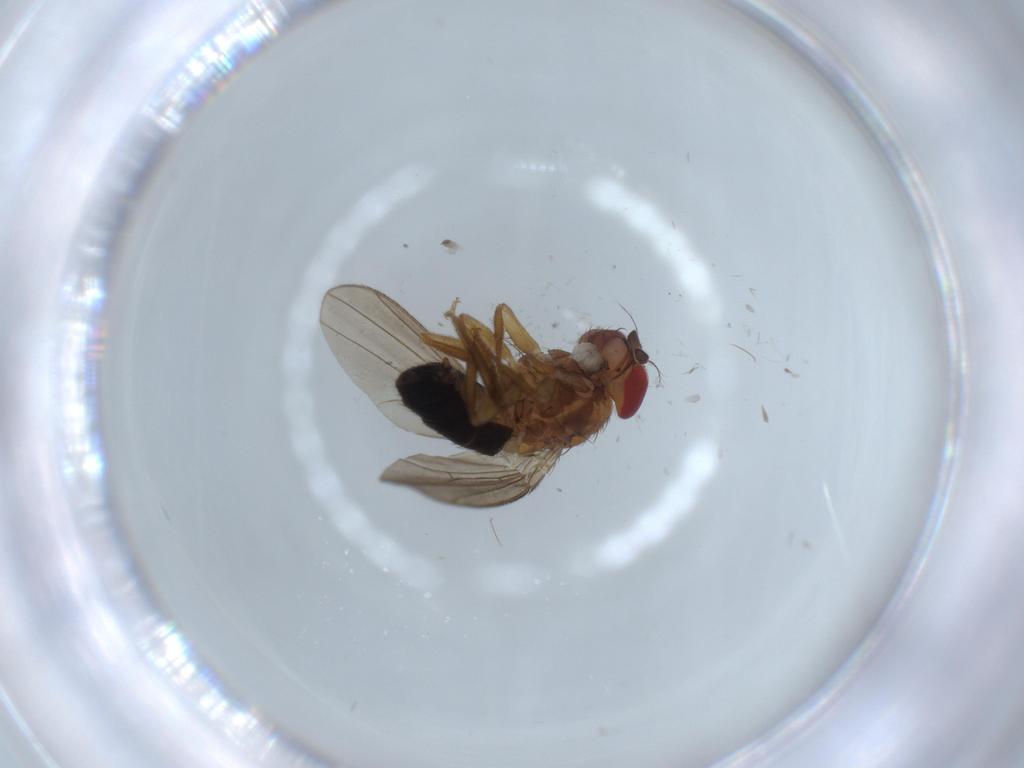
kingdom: Animalia
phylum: Arthropoda
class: Insecta
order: Diptera
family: Drosophilidae
